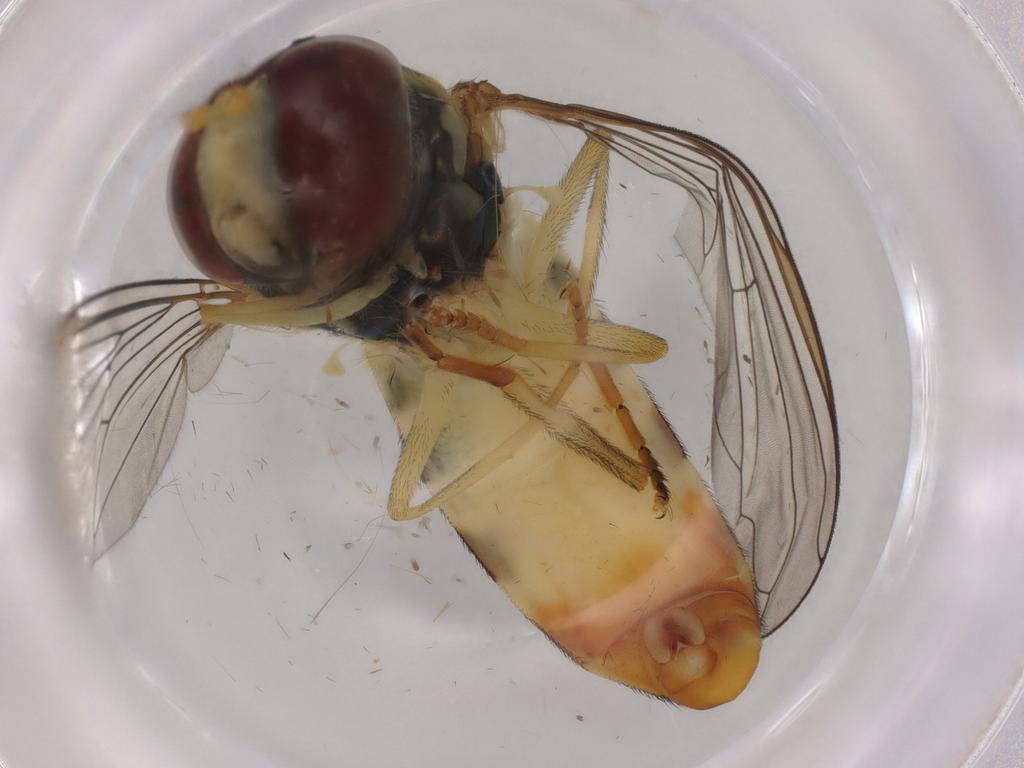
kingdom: Animalia
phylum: Arthropoda
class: Insecta
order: Diptera
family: Syrphidae
